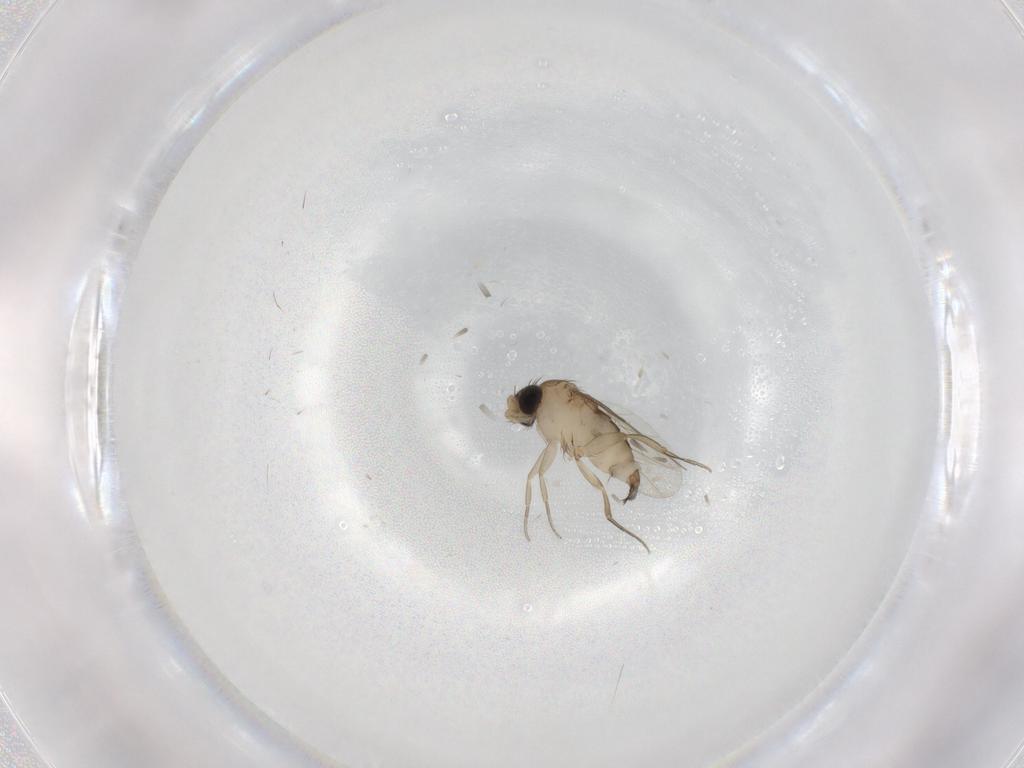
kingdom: Animalia
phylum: Arthropoda
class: Insecta
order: Diptera
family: Phoridae
